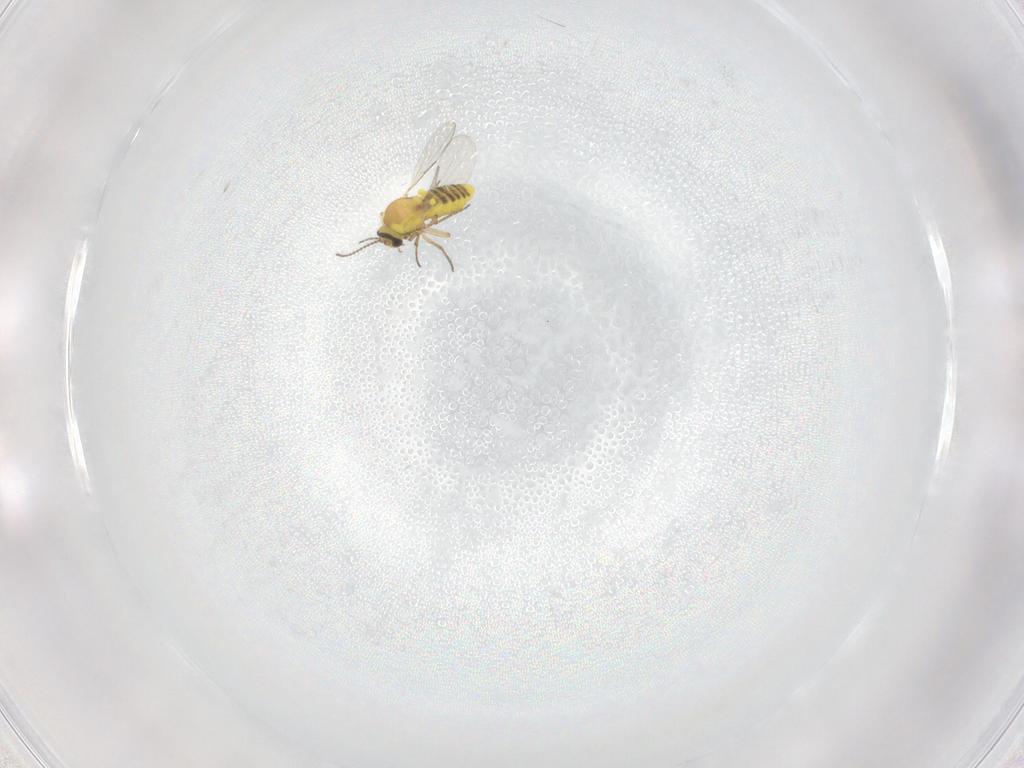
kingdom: Animalia
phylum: Arthropoda
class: Insecta
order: Diptera
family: Ceratopogonidae
